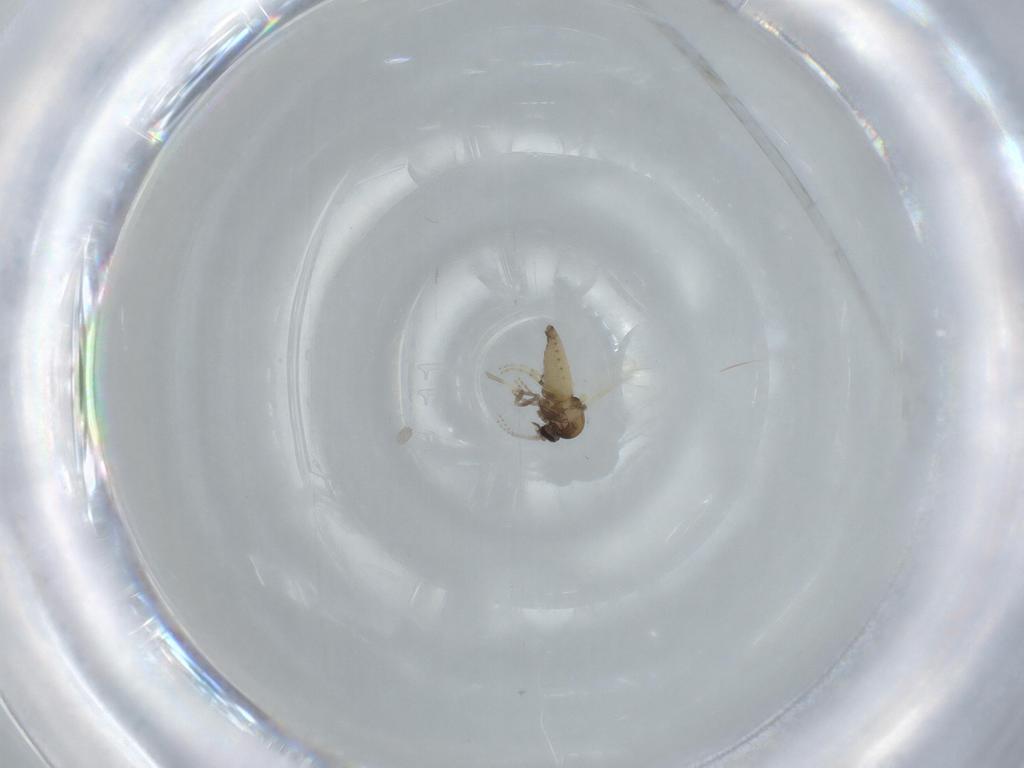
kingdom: Animalia
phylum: Arthropoda
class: Insecta
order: Diptera
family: Ceratopogonidae
